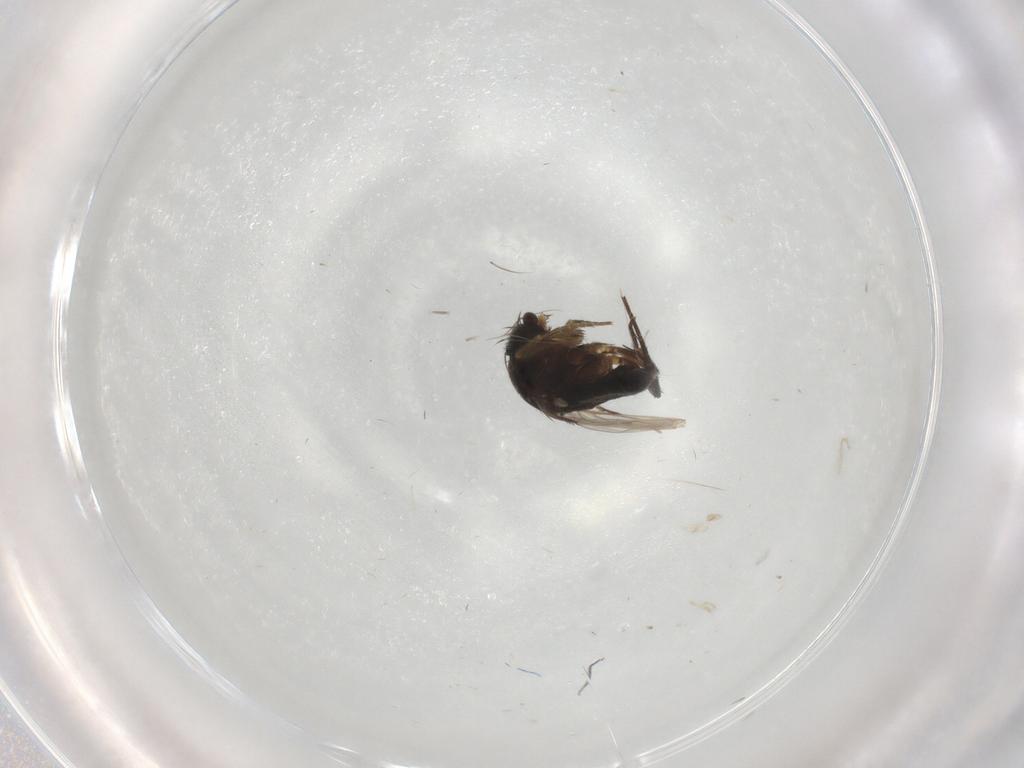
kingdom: Animalia
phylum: Arthropoda
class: Insecta
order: Diptera
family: Phoridae
